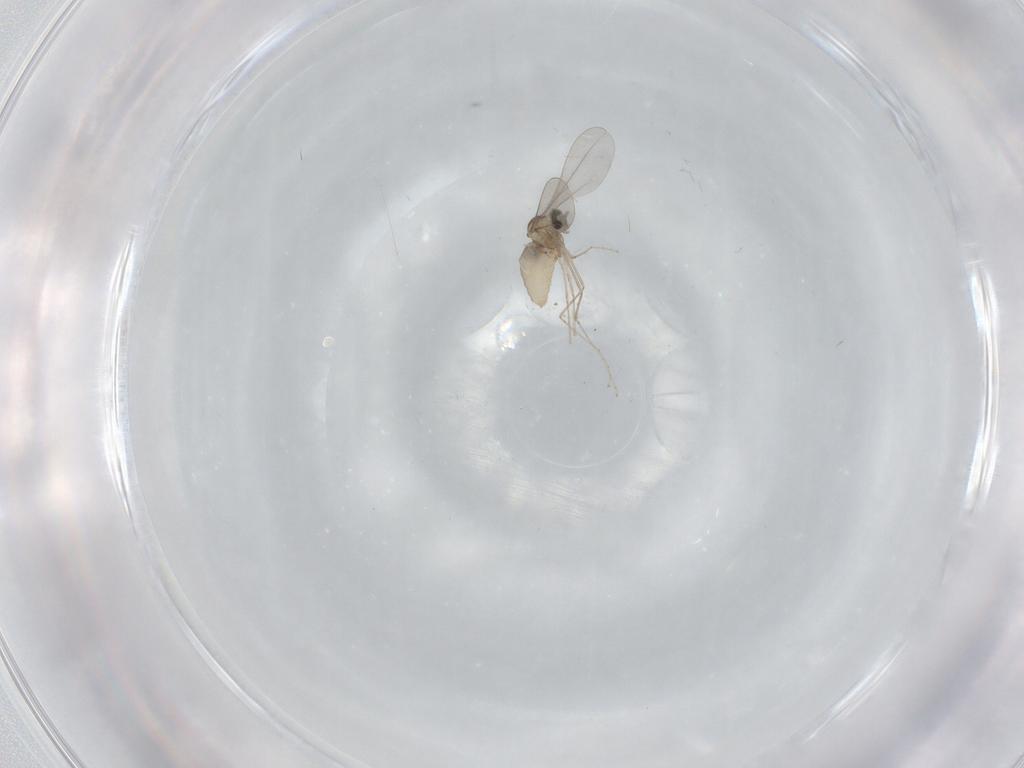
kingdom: Animalia
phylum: Arthropoda
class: Insecta
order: Diptera
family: Cecidomyiidae
